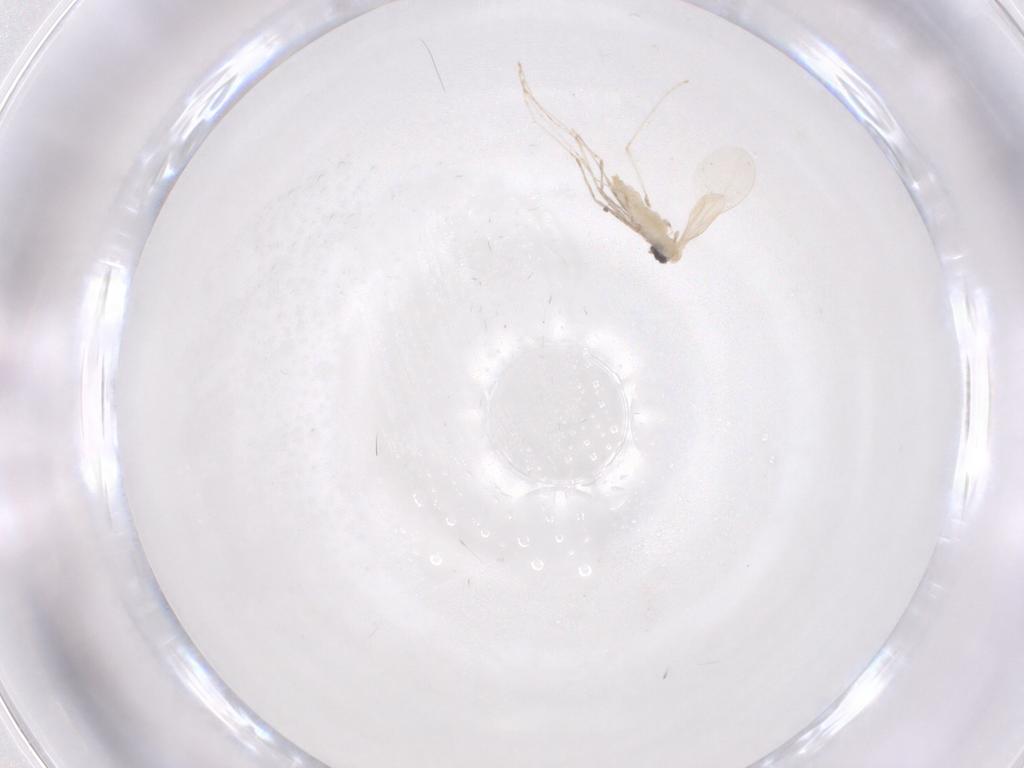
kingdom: Animalia
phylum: Arthropoda
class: Insecta
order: Diptera
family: Cecidomyiidae
